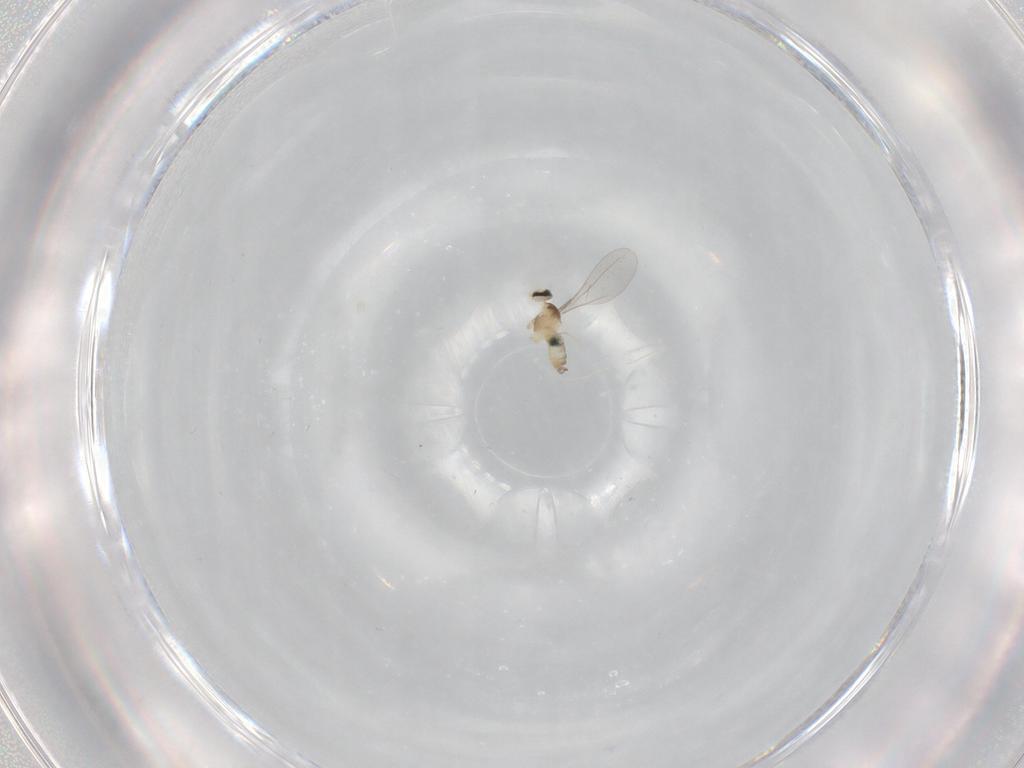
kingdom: Animalia
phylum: Arthropoda
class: Insecta
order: Diptera
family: Cecidomyiidae
